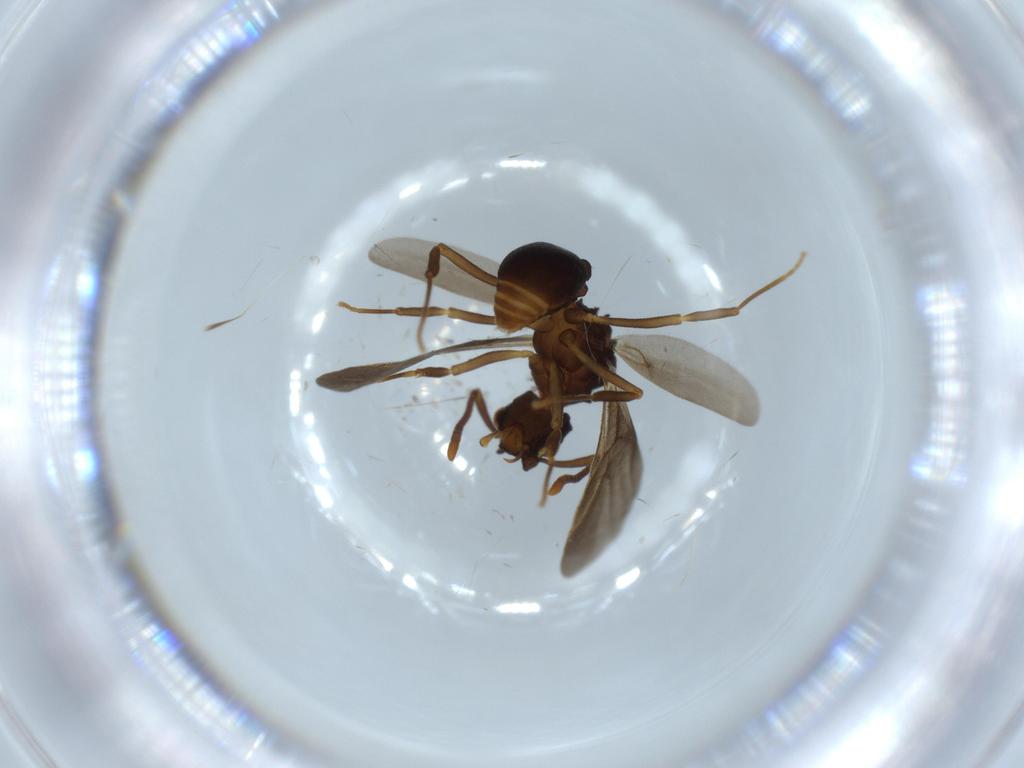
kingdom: Animalia
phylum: Arthropoda
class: Insecta
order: Hymenoptera
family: Formicidae
